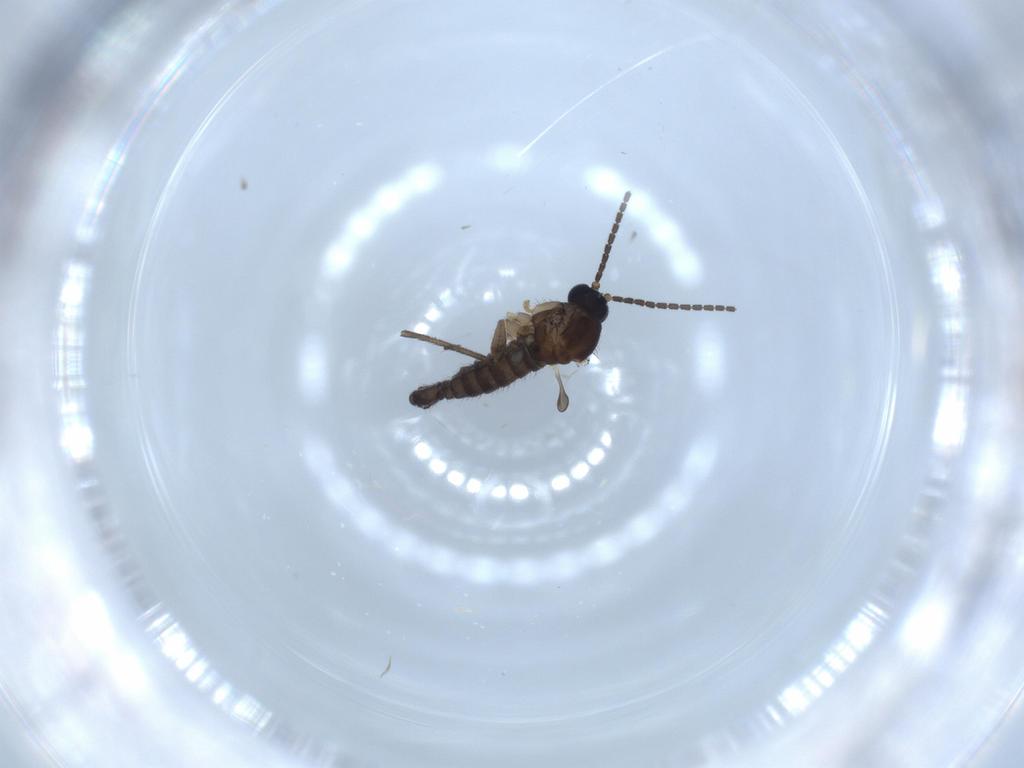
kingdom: Animalia
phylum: Arthropoda
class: Insecta
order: Diptera
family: Sciaridae
